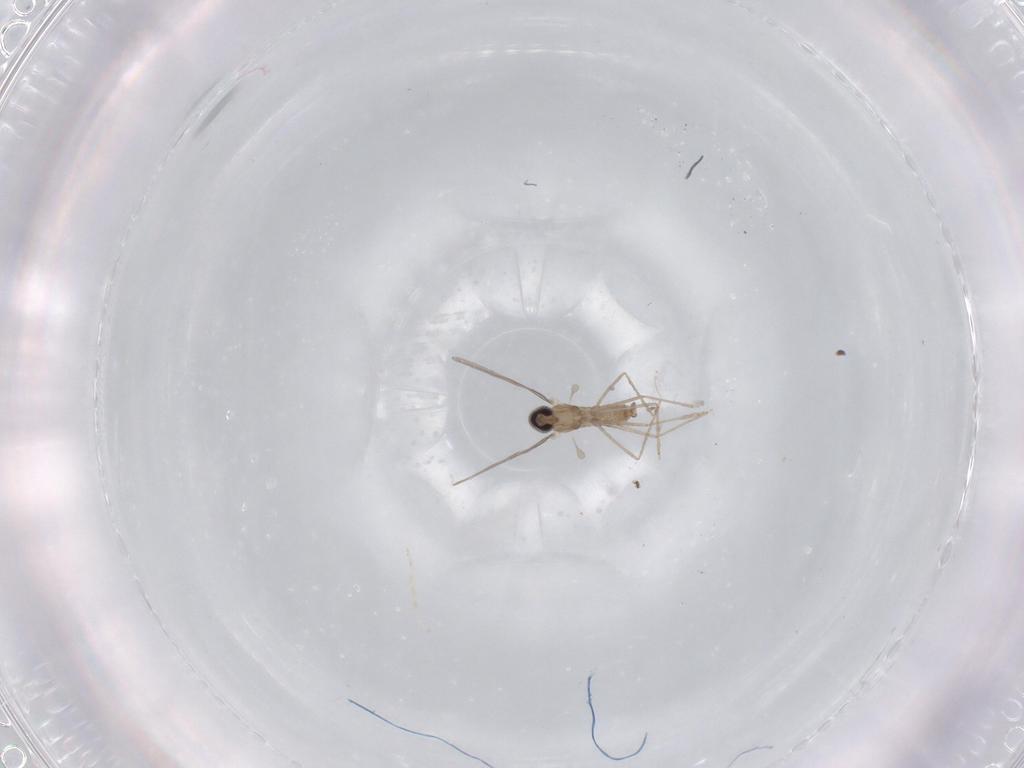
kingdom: Animalia
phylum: Arthropoda
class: Insecta
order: Diptera
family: Cecidomyiidae
